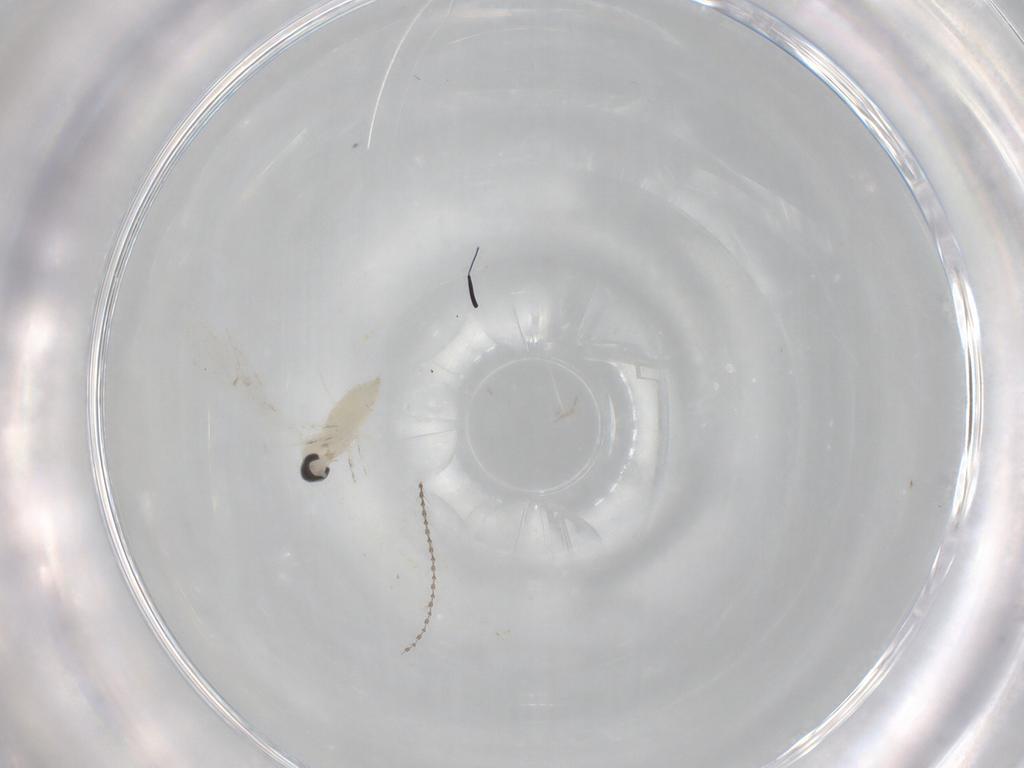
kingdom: Animalia
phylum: Arthropoda
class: Insecta
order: Diptera
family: Cecidomyiidae
